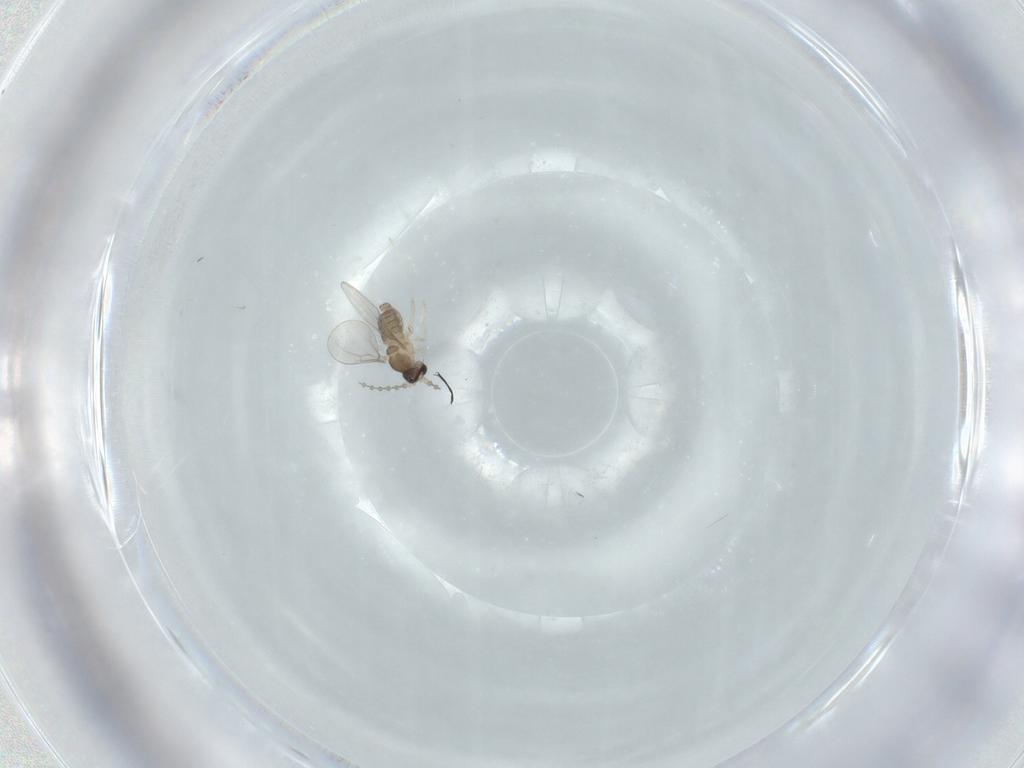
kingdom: Animalia
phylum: Arthropoda
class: Insecta
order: Diptera
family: Cecidomyiidae
